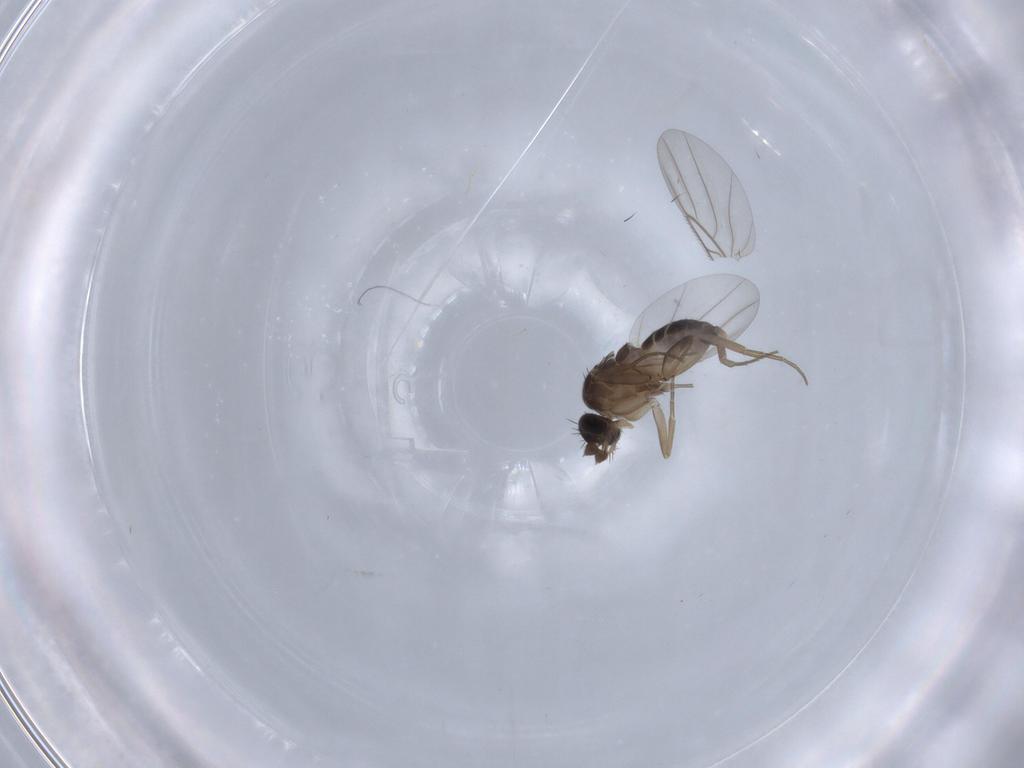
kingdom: Animalia
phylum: Arthropoda
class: Insecta
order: Diptera
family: Phoridae
